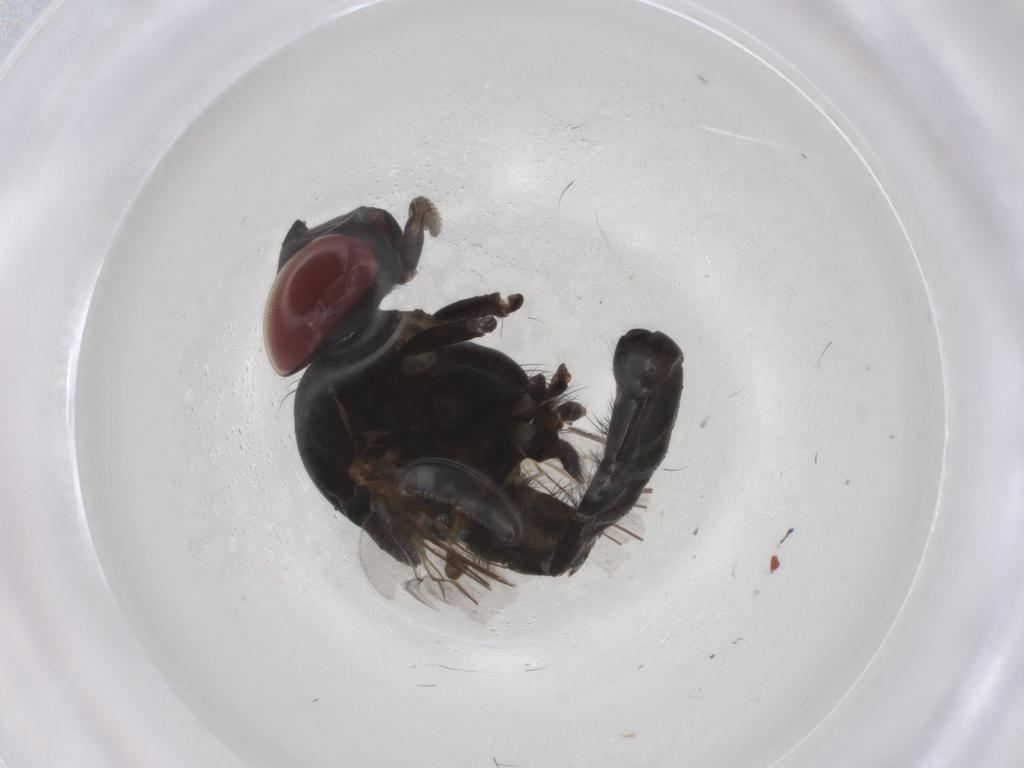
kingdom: Animalia
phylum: Arthropoda
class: Insecta
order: Diptera
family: Fannia
